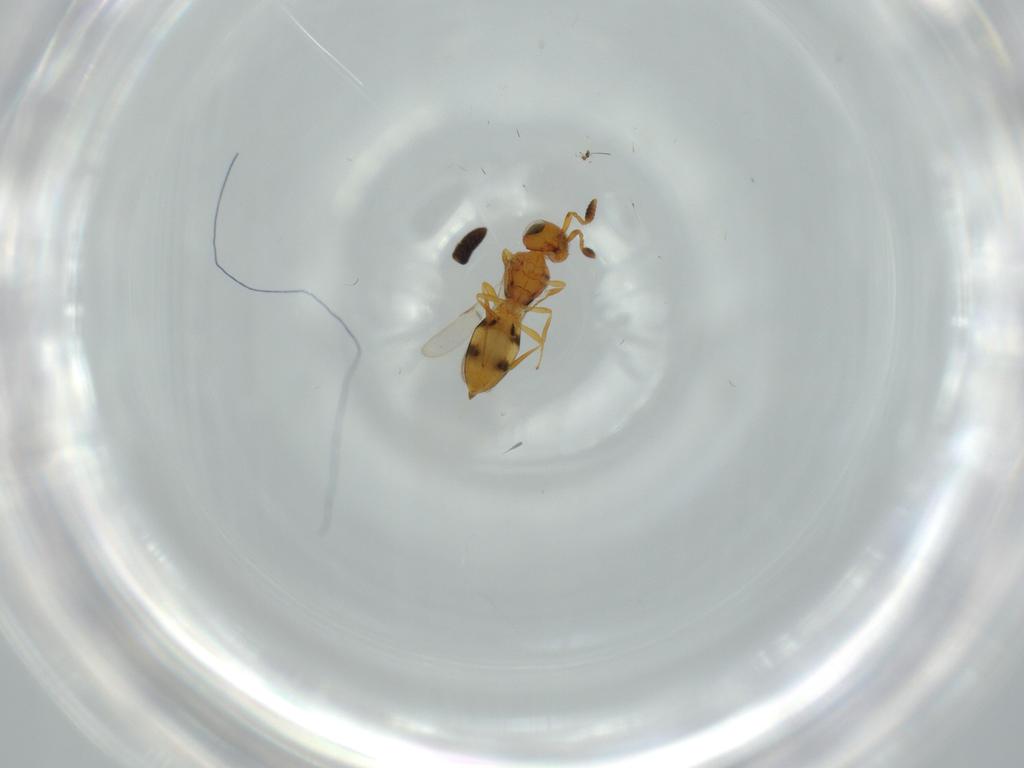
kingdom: Animalia
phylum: Arthropoda
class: Insecta
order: Hymenoptera
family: Scelionidae
